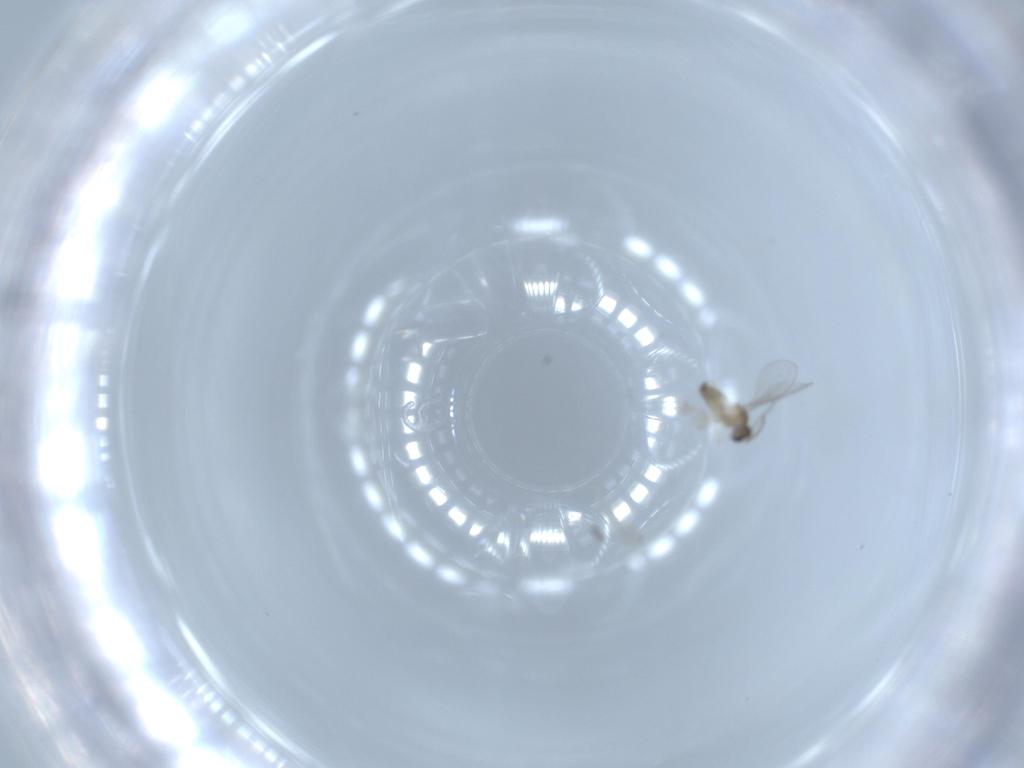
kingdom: Animalia
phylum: Arthropoda
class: Insecta
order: Diptera
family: Cecidomyiidae
